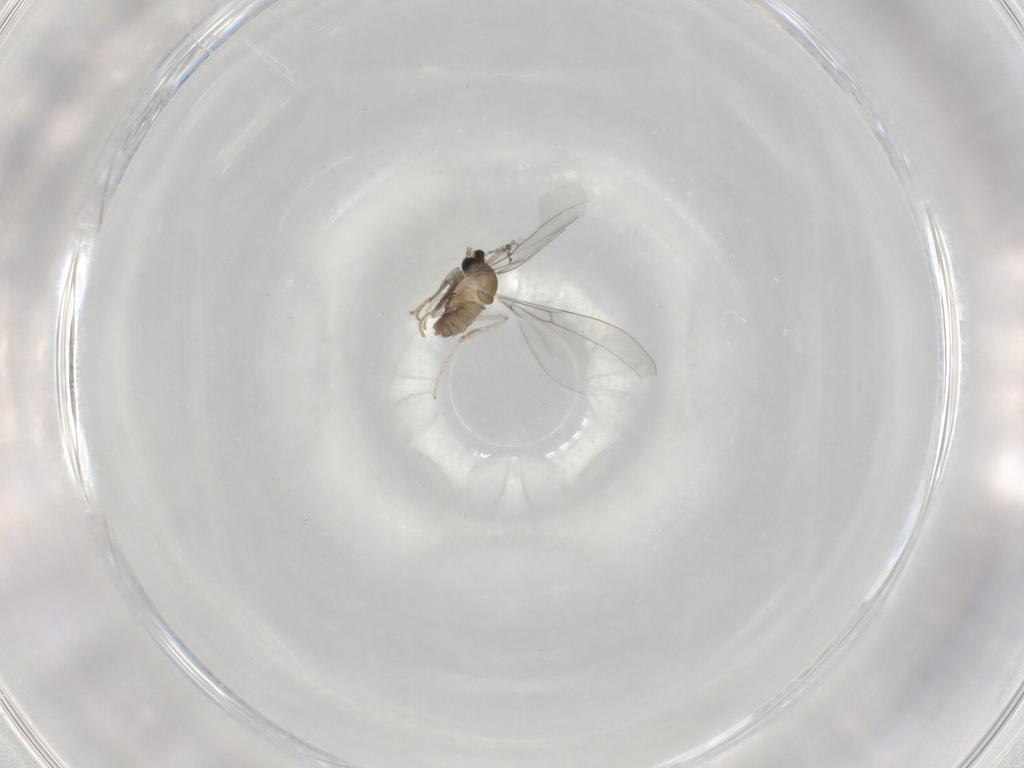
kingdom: Animalia
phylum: Arthropoda
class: Insecta
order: Diptera
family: Cecidomyiidae
